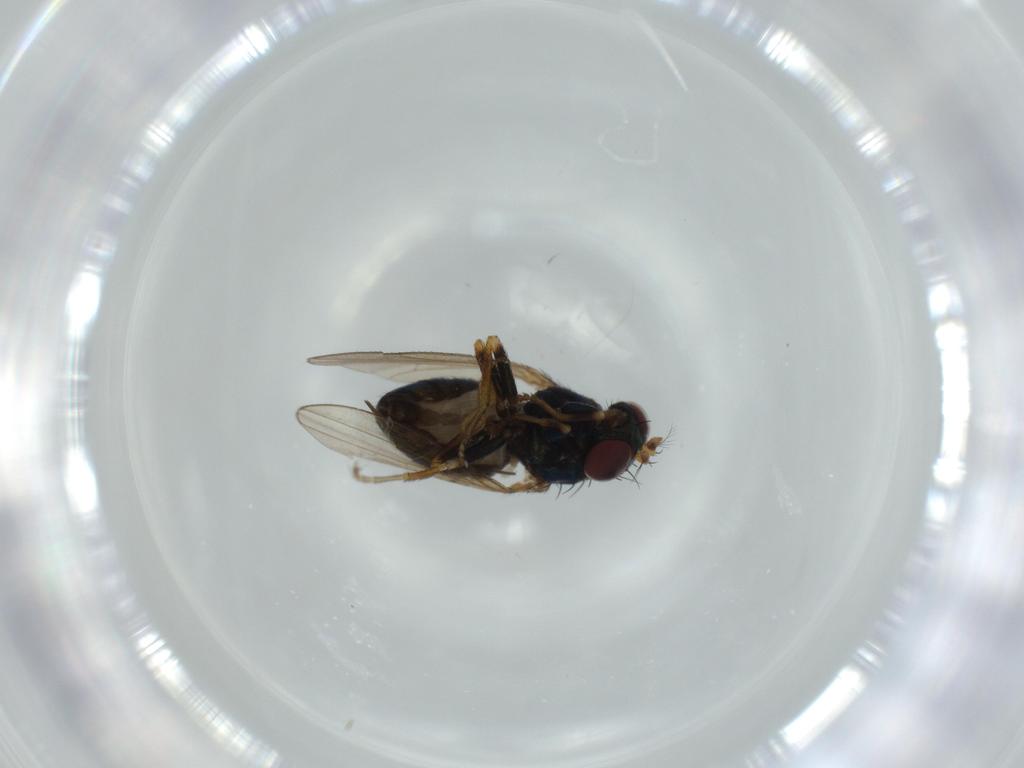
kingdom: Animalia
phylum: Arthropoda
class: Insecta
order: Diptera
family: Ephydridae
